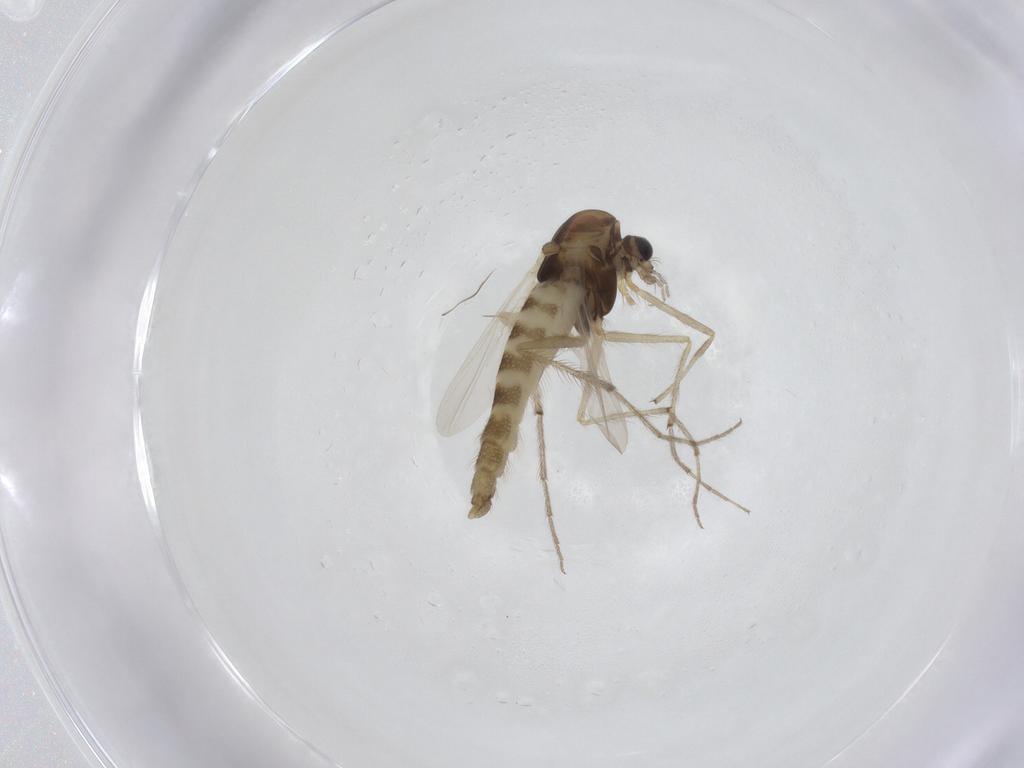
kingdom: Animalia
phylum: Arthropoda
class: Insecta
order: Diptera
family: Chironomidae
